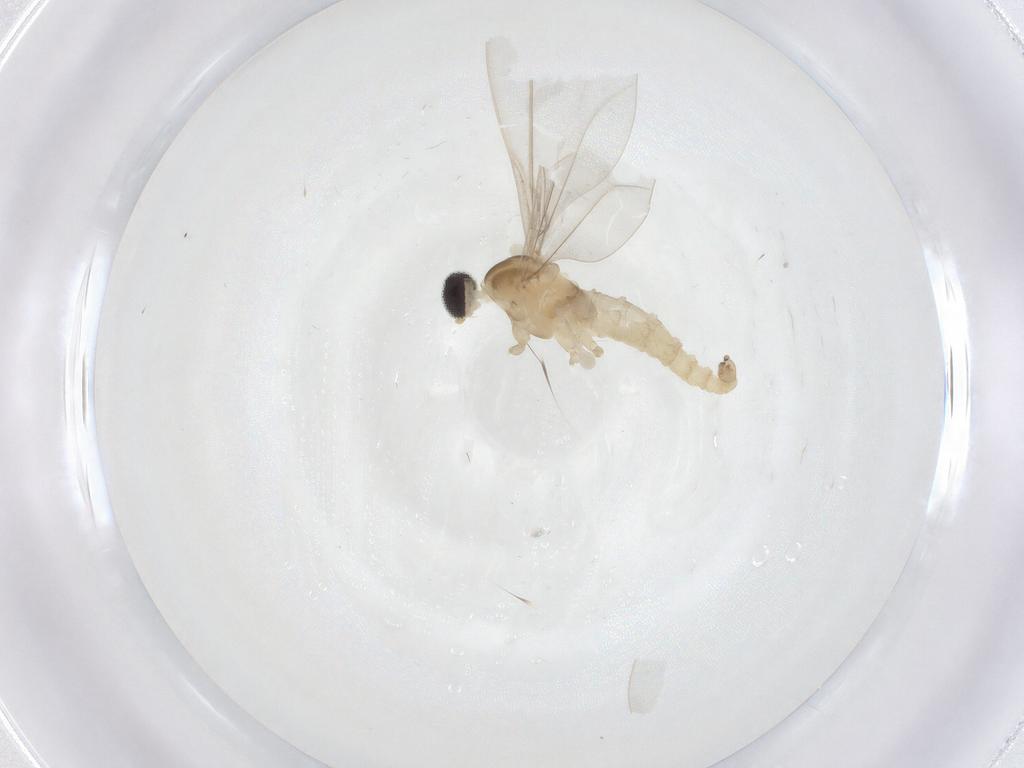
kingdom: Animalia
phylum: Arthropoda
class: Insecta
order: Diptera
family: Cecidomyiidae
